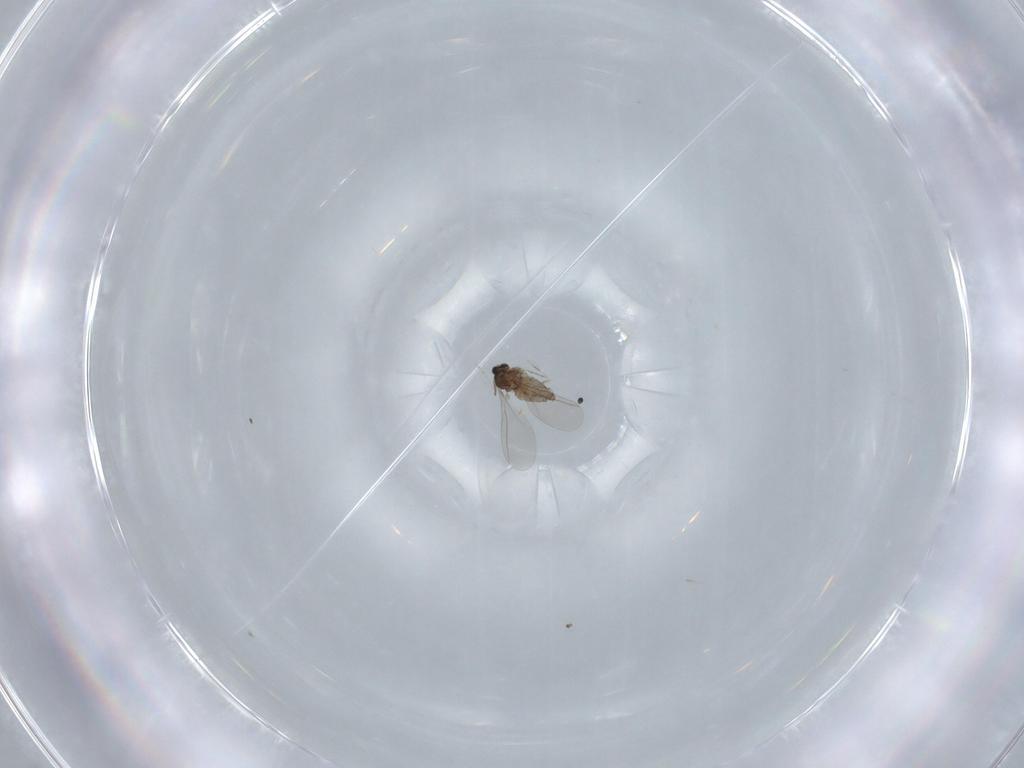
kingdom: Animalia
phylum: Arthropoda
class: Insecta
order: Diptera
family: Cecidomyiidae
